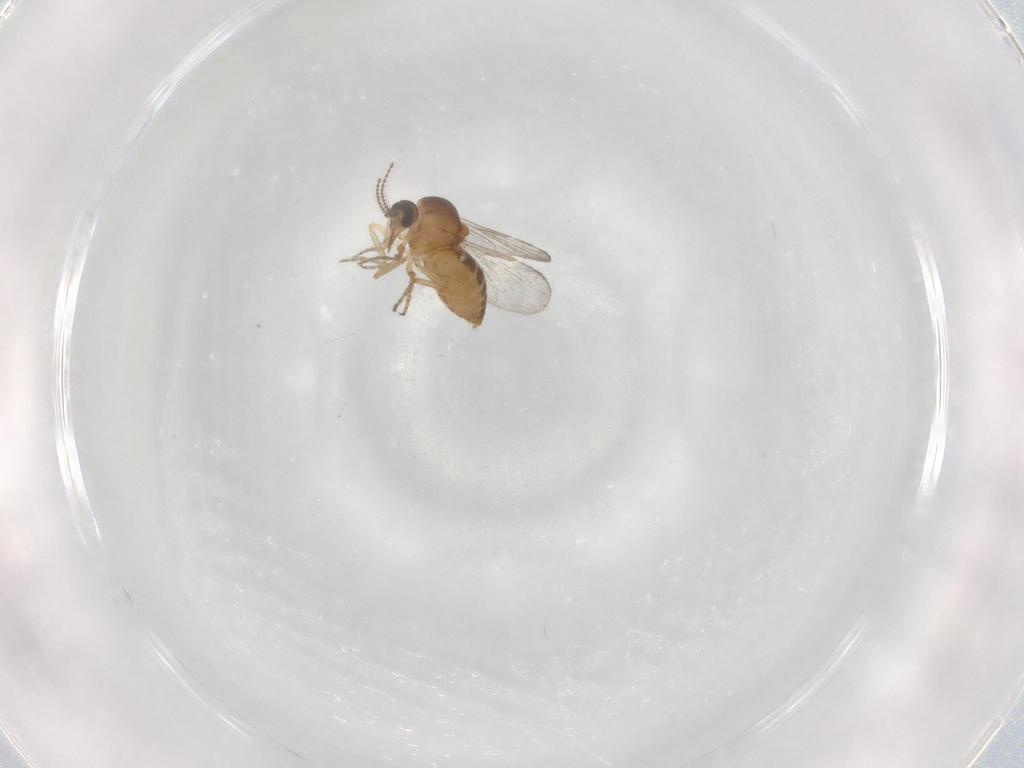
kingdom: Animalia
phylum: Arthropoda
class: Insecta
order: Diptera
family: Ceratopogonidae
